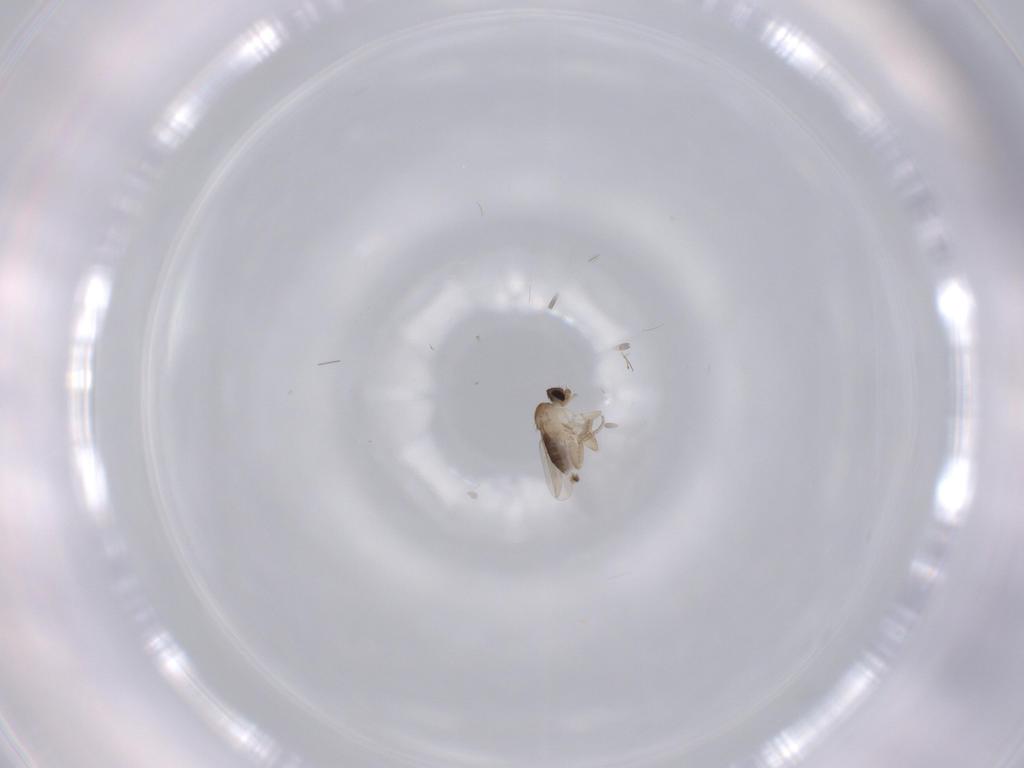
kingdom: Animalia
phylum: Arthropoda
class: Insecta
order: Diptera
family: Phoridae
